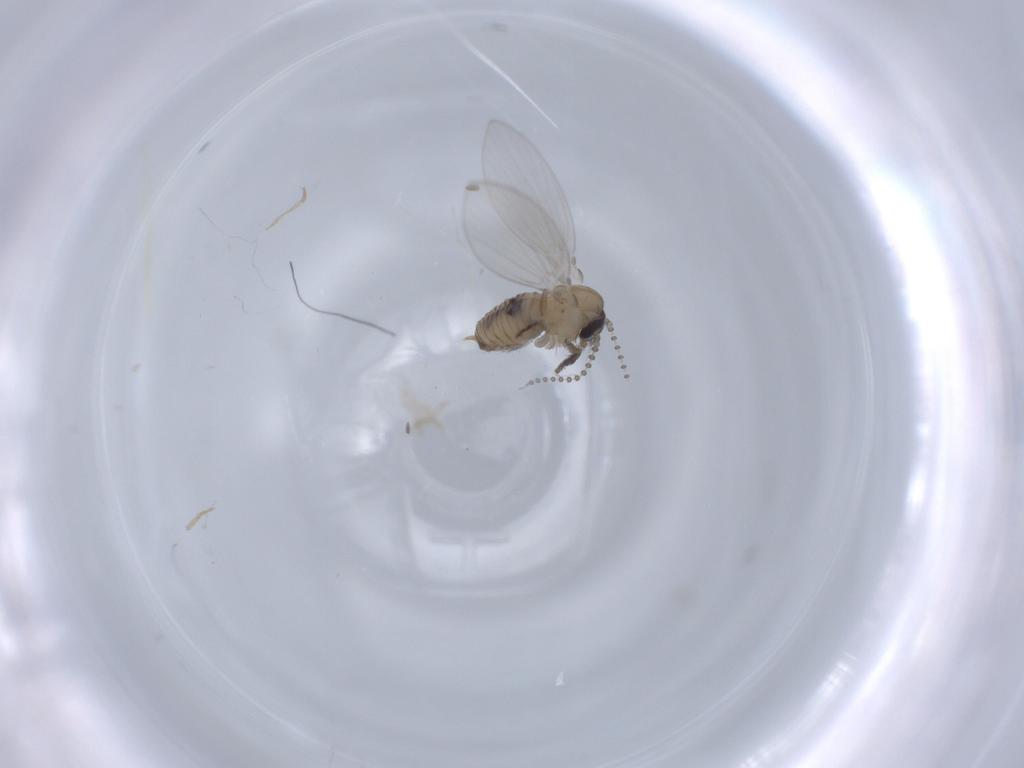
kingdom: Animalia
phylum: Arthropoda
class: Insecta
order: Diptera
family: Psychodidae
